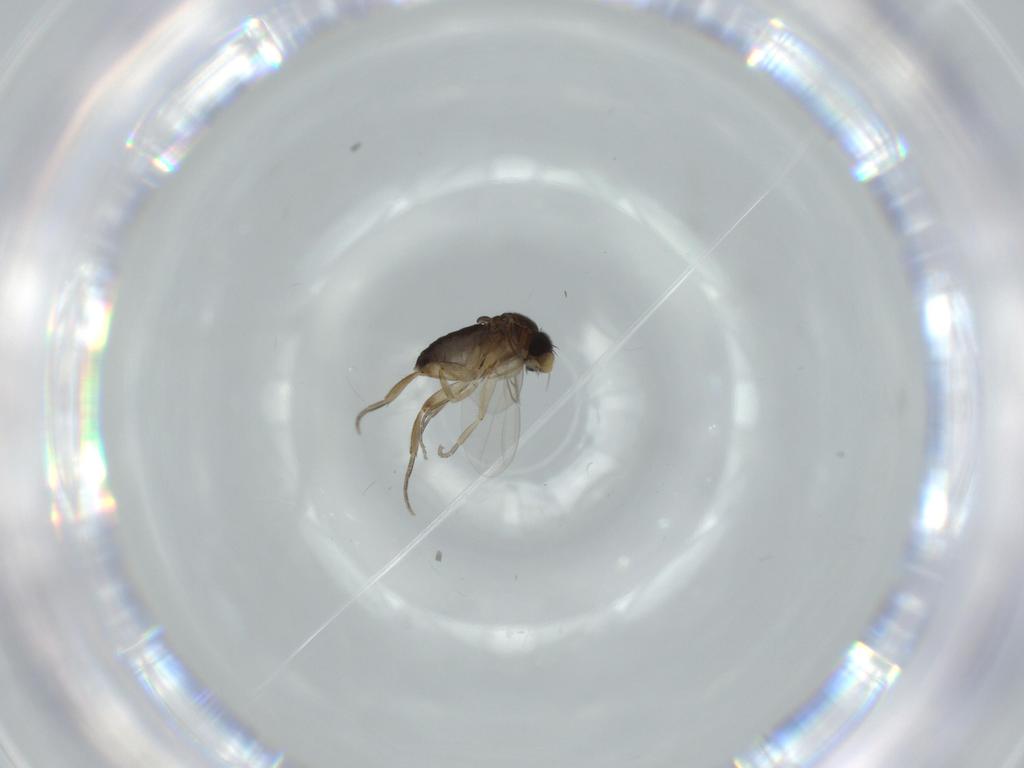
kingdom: Animalia
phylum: Arthropoda
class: Insecta
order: Diptera
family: Phoridae
